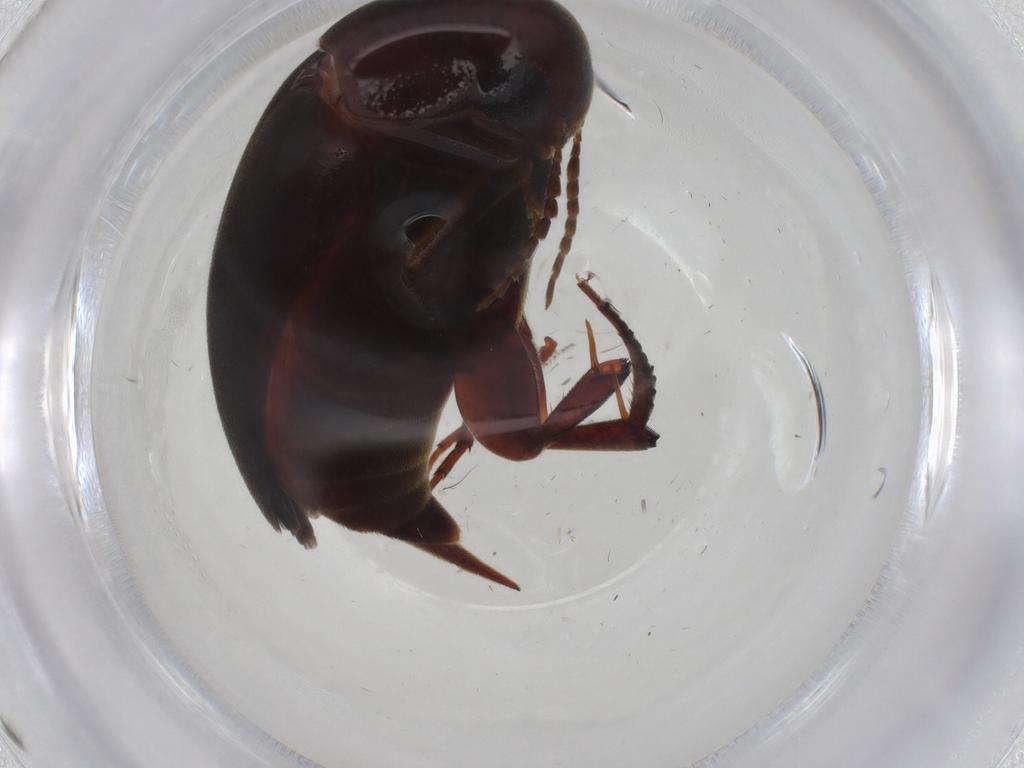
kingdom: Animalia
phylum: Arthropoda
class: Insecta
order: Coleoptera
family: Mordellidae
